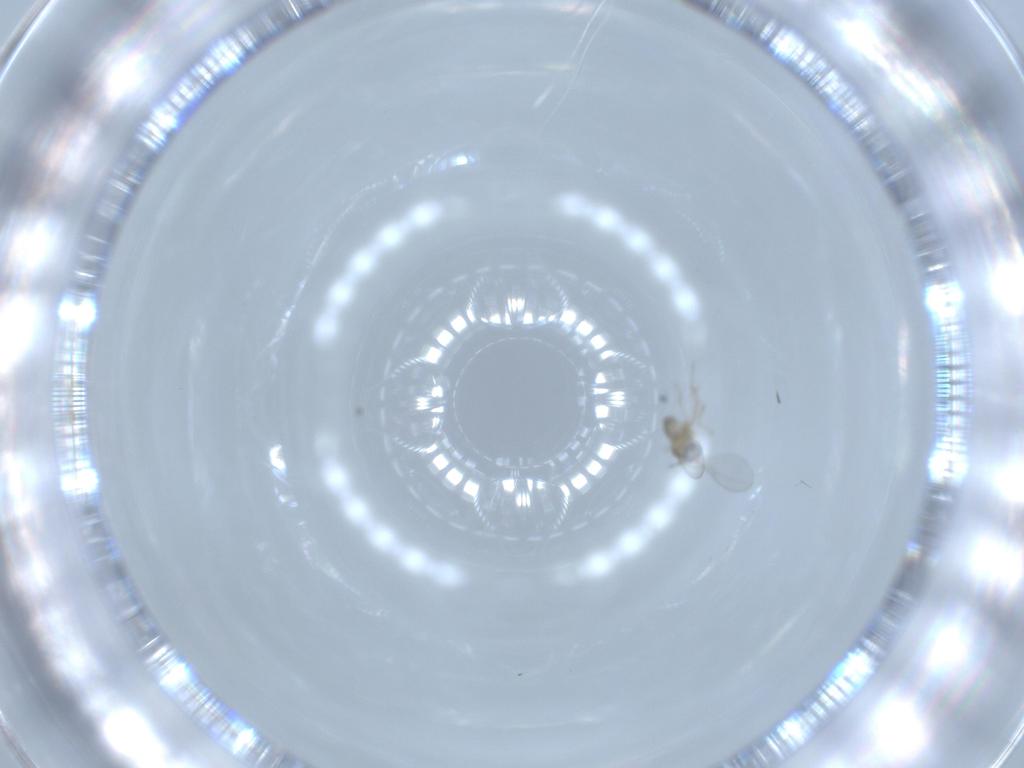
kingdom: Animalia
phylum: Arthropoda
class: Insecta
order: Diptera
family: Cecidomyiidae
